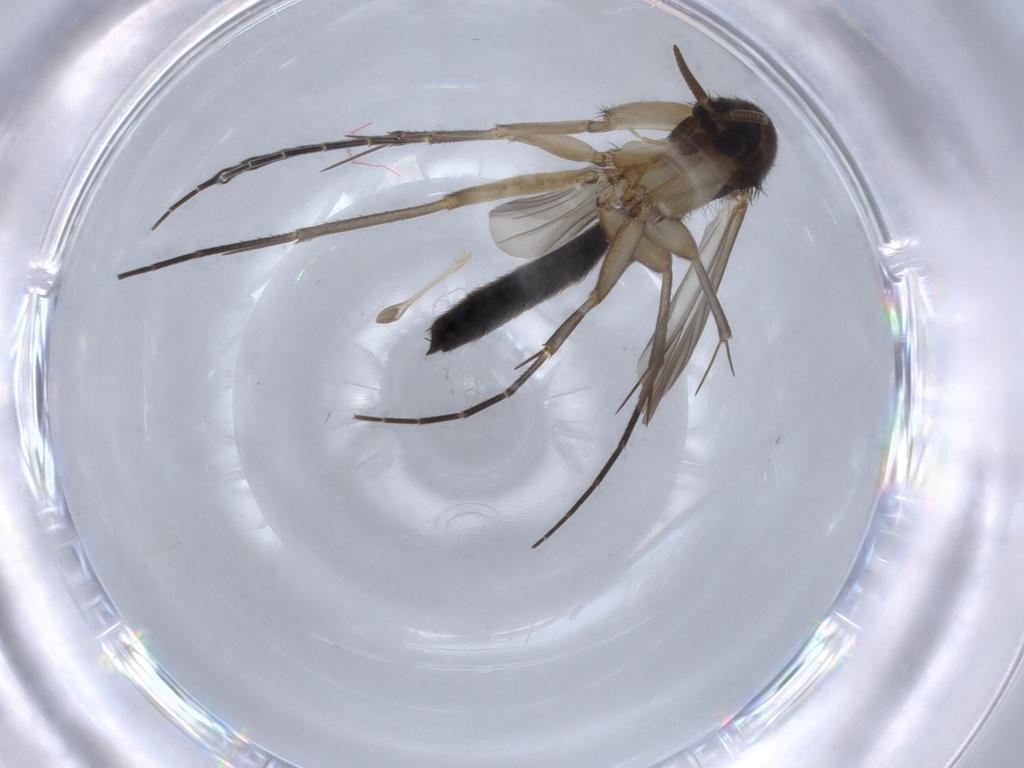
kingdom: Animalia
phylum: Arthropoda
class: Insecta
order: Diptera
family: Mycetophilidae
